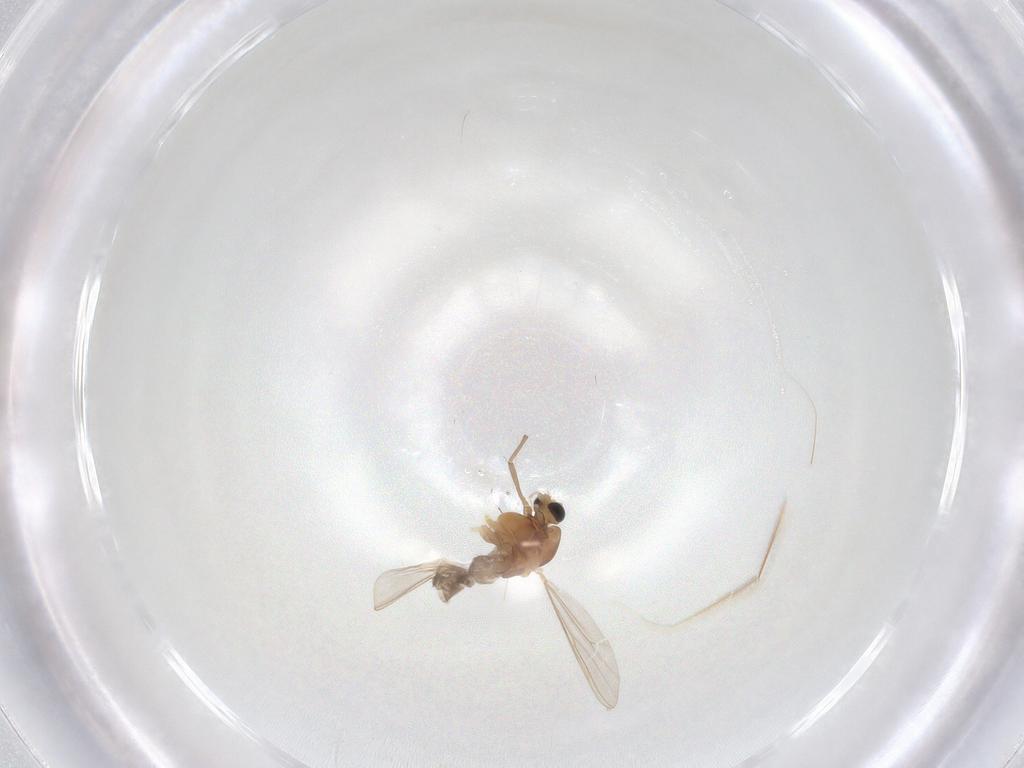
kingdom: Animalia
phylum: Arthropoda
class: Insecta
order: Diptera
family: Chironomidae
